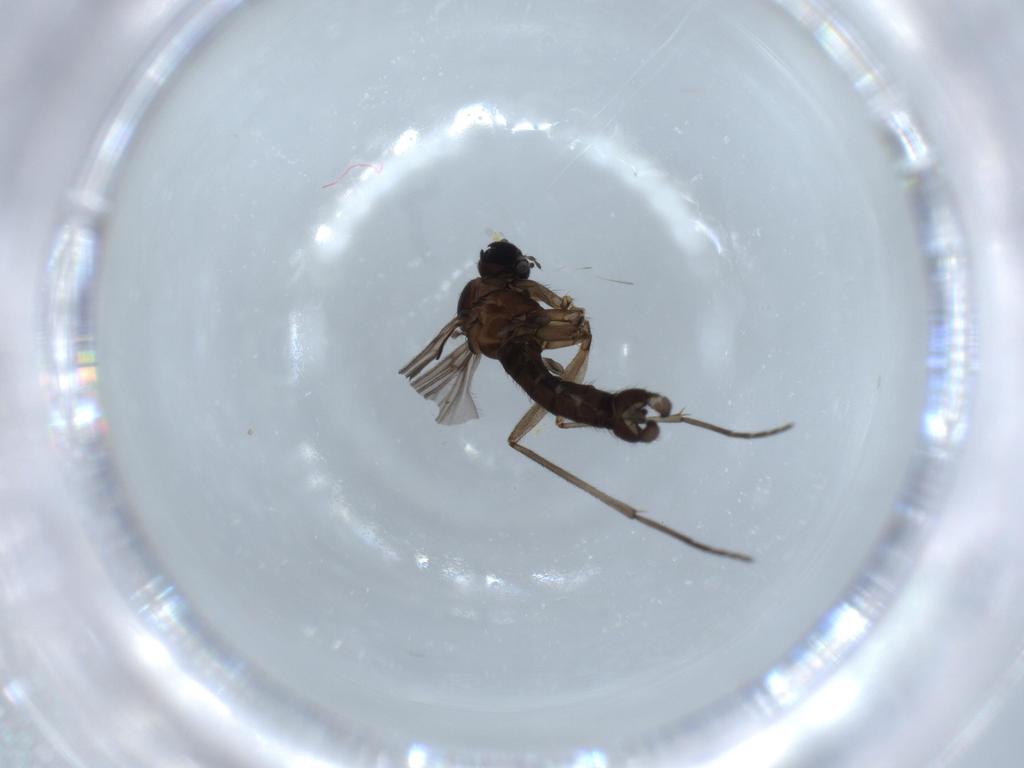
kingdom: Animalia
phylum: Arthropoda
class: Insecta
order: Diptera
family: Sciaridae
